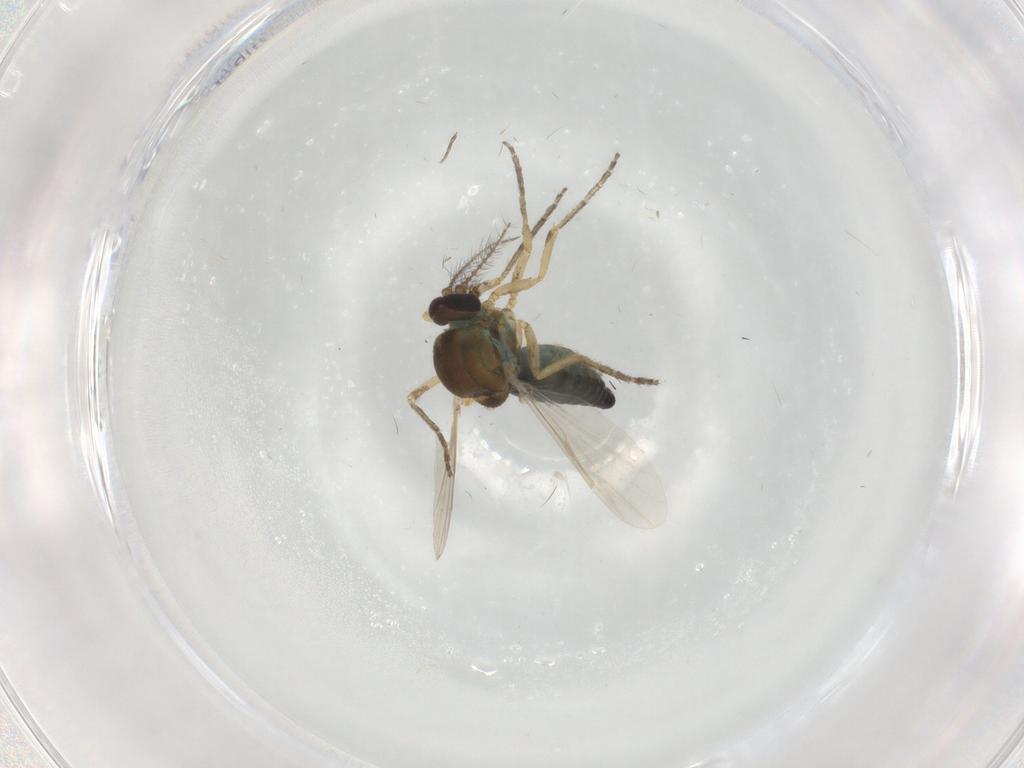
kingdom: Animalia
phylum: Arthropoda
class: Insecta
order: Diptera
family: Ceratopogonidae
